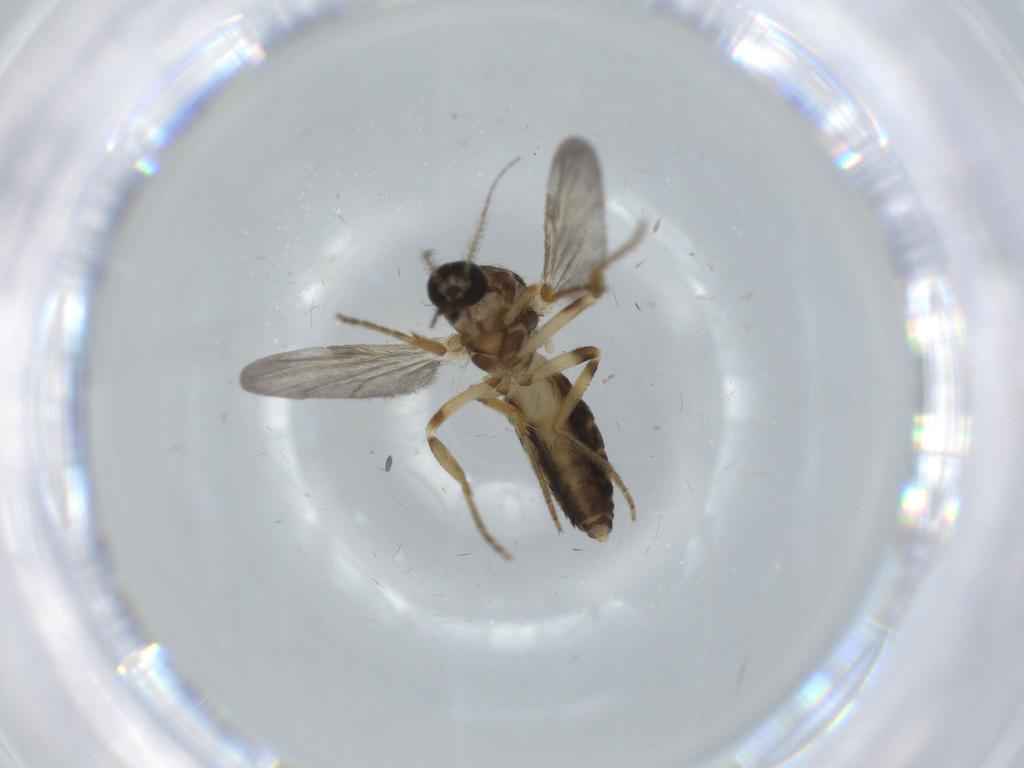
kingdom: Animalia
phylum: Arthropoda
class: Insecta
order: Diptera
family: Ceratopogonidae
